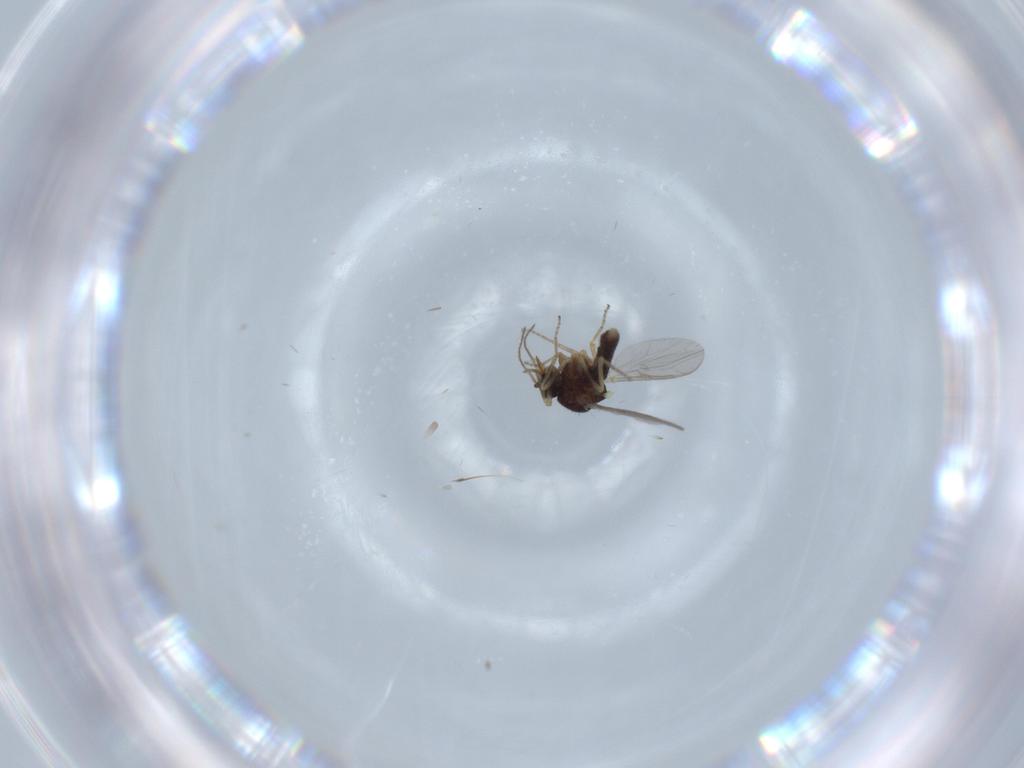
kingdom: Animalia
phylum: Arthropoda
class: Insecta
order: Diptera
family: Ceratopogonidae
